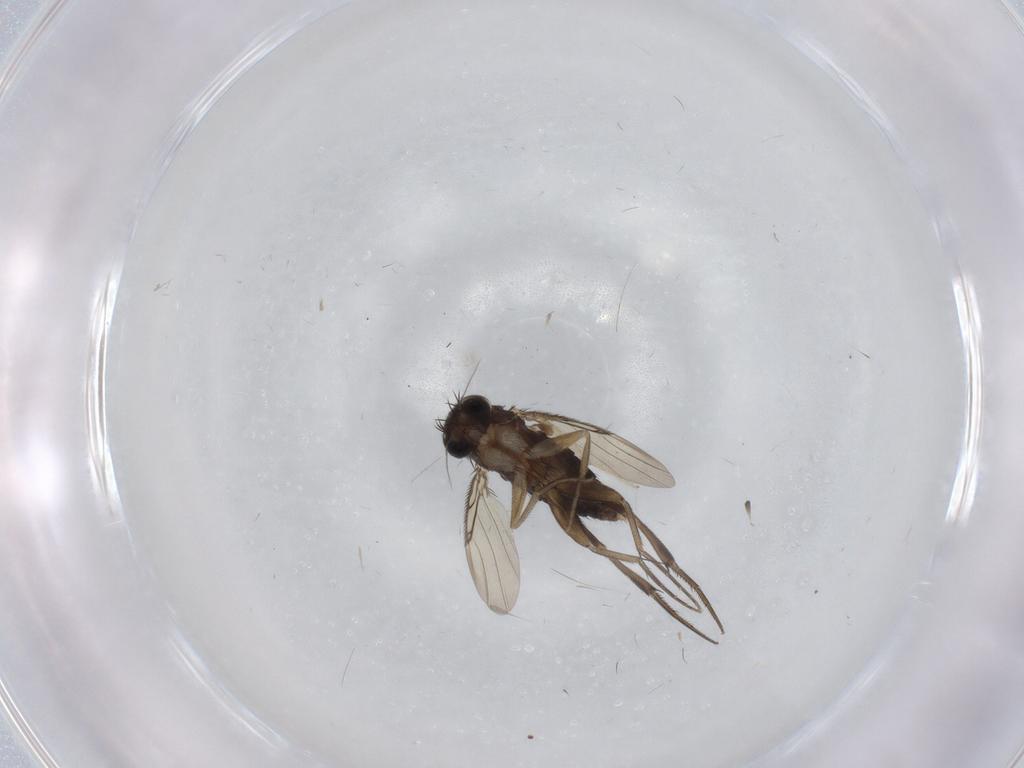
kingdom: Animalia
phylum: Arthropoda
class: Insecta
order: Diptera
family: Phoridae
